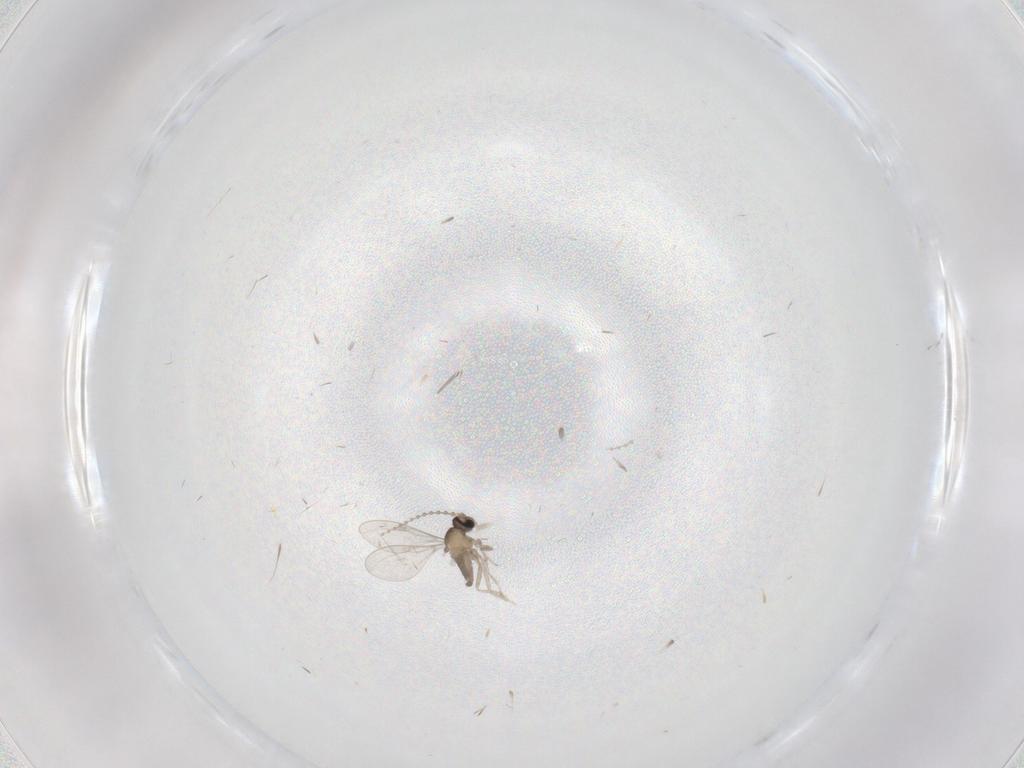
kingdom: Animalia
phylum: Arthropoda
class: Insecta
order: Diptera
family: Cecidomyiidae
